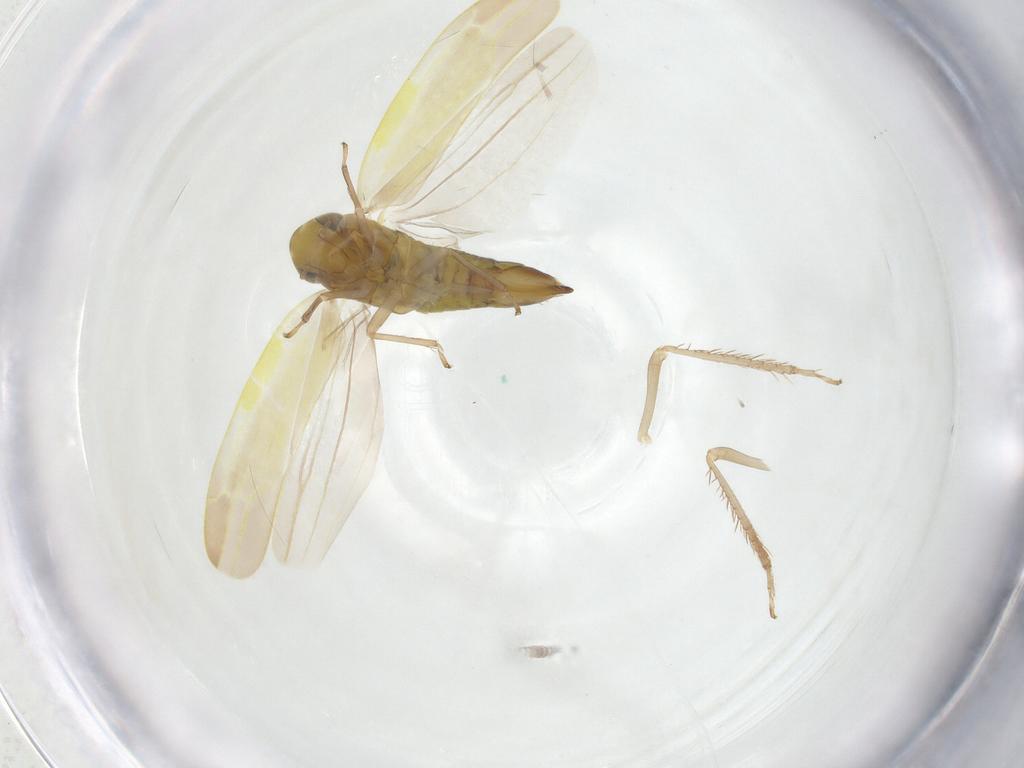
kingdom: Animalia
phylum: Arthropoda
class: Insecta
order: Hemiptera
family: Cicadellidae
